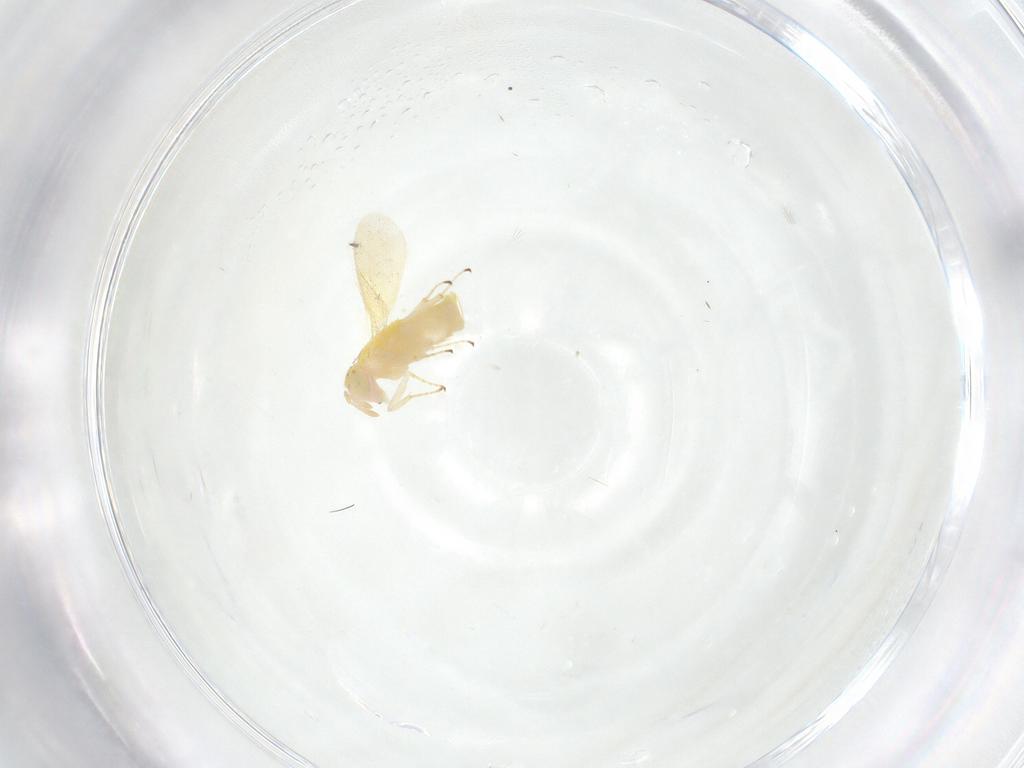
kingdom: Animalia
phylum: Arthropoda
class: Insecta
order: Hymenoptera
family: Aphelinidae
